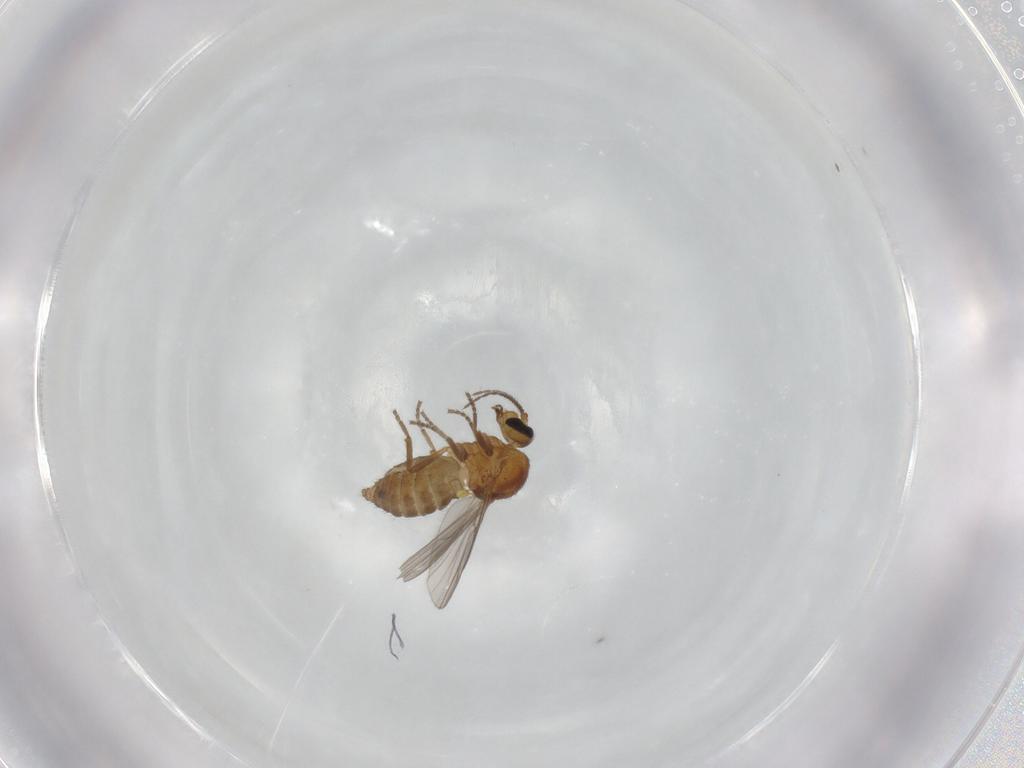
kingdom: Animalia
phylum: Arthropoda
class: Insecta
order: Diptera
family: Ceratopogonidae
